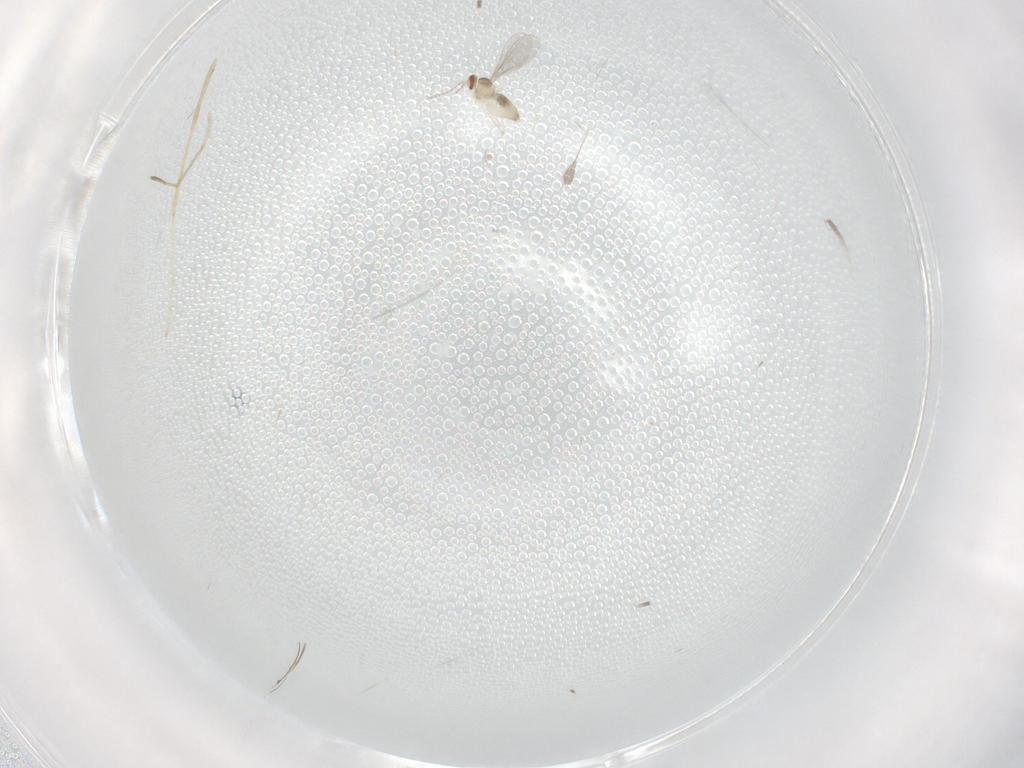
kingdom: Animalia
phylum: Arthropoda
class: Insecta
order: Diptera
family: Cecidomyiidae
